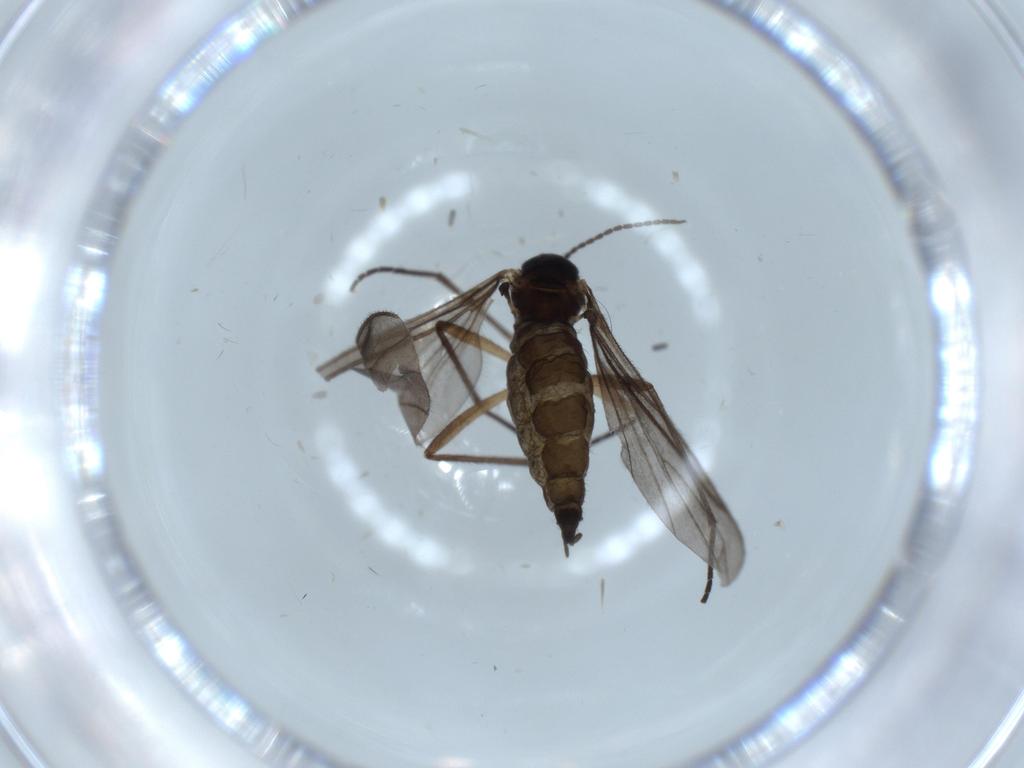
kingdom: Animalia
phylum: Arthropoda
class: Insecta
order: Diptera
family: Sciaridae
